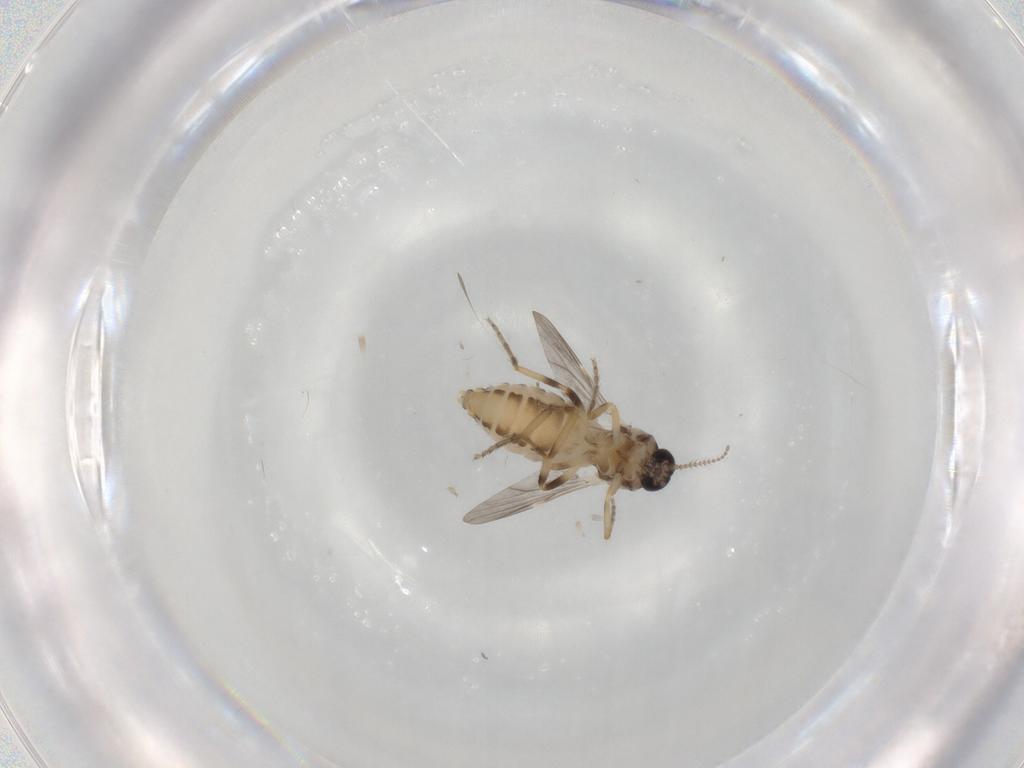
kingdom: Animalia
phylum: Arthropoda
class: Insecta
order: Diptera
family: Ceratopogonidae
